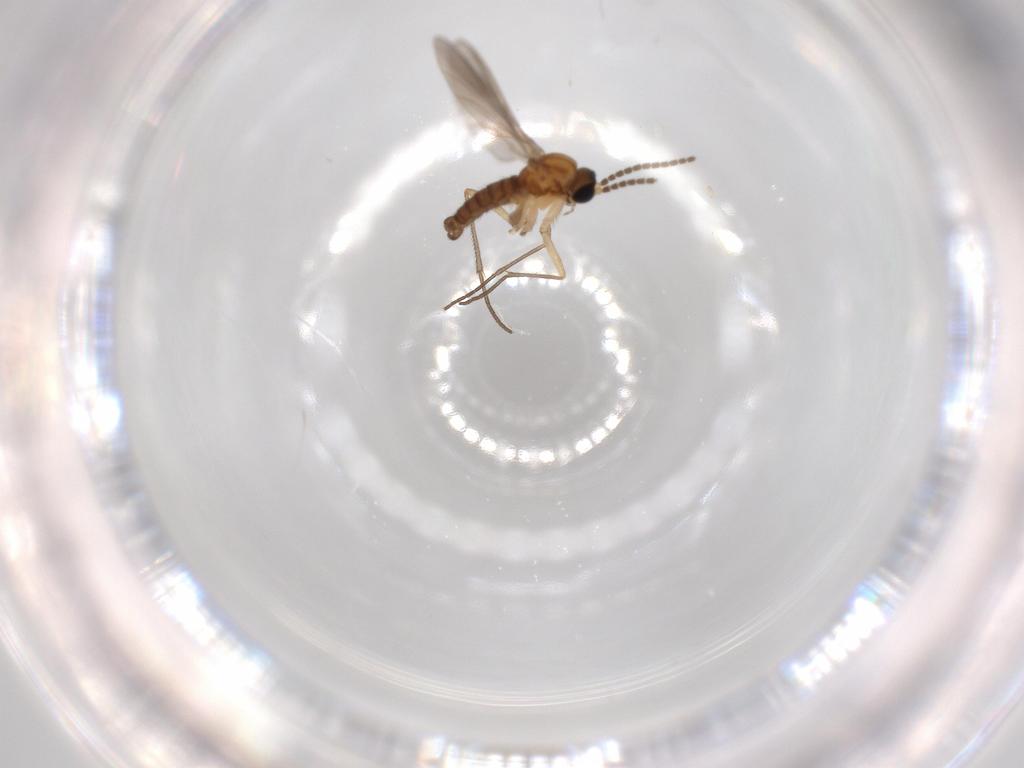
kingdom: Animalia
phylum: Arthropoda
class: Insecta
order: Diptera
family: Sciaridae
